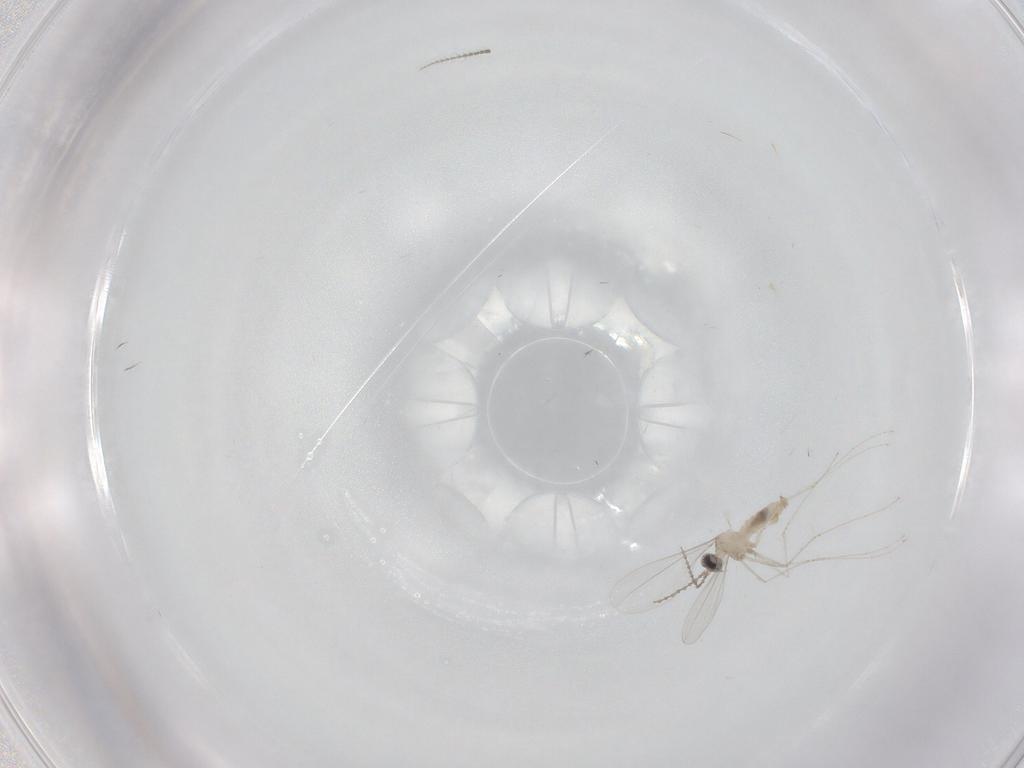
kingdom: Animalia
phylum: Arthropoda
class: Insecta
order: Diptera
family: Cecidomyiidae
